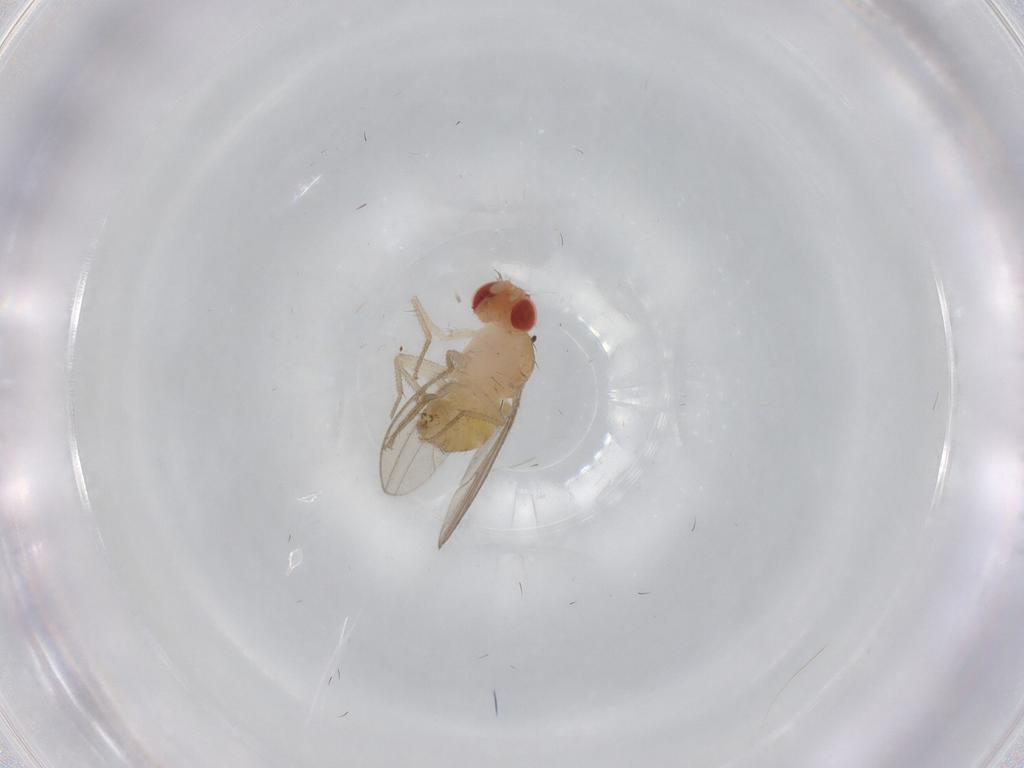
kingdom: Animalia
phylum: Arthropoda
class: Insecta
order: Diptera
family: Drosophilidae
